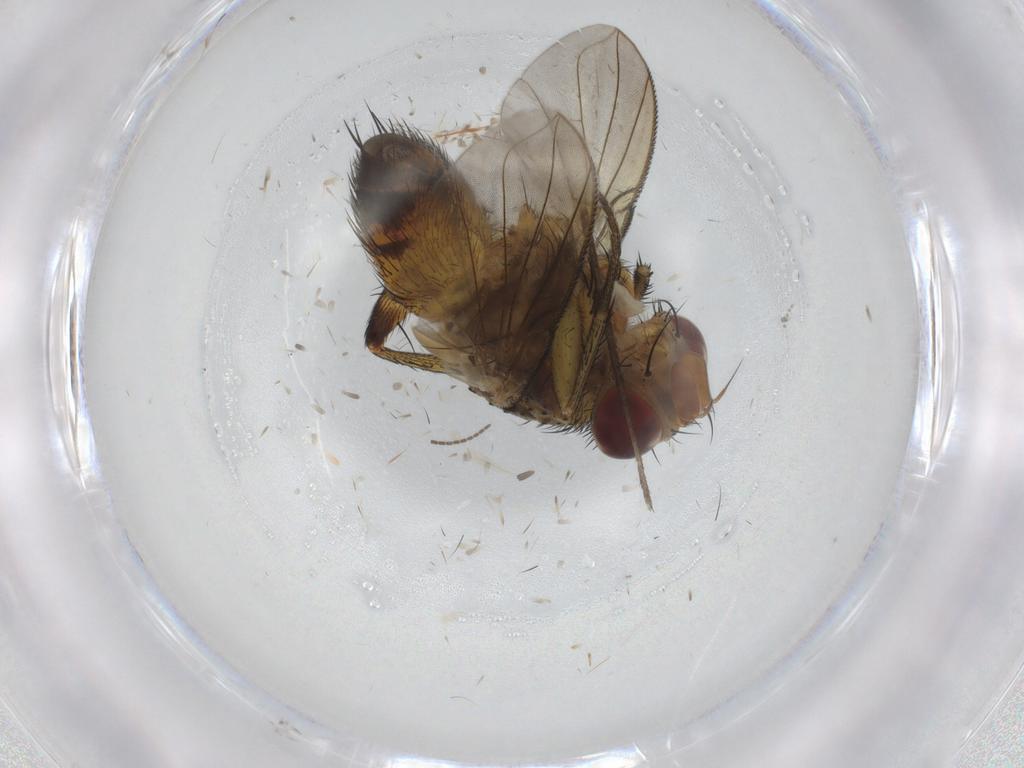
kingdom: Animalia
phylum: Arthropoda
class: Insecta
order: Diptera
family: Tachinidae
